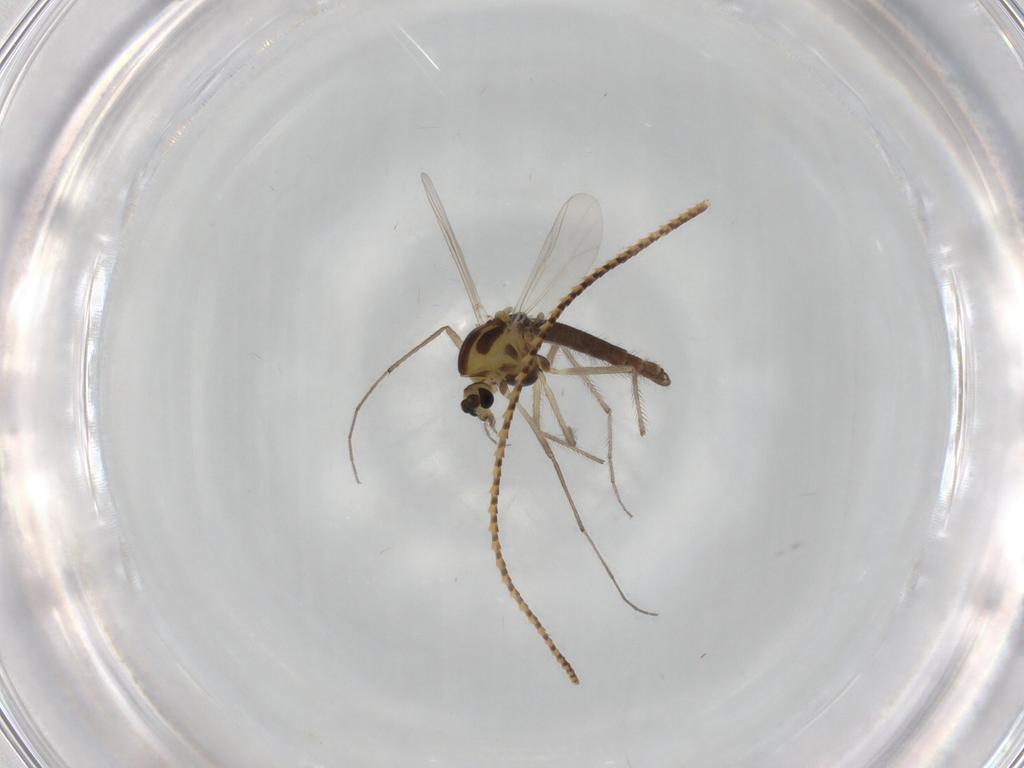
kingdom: Animalia
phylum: Arthropoda
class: Insecta
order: Diptera
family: Chironomidae
